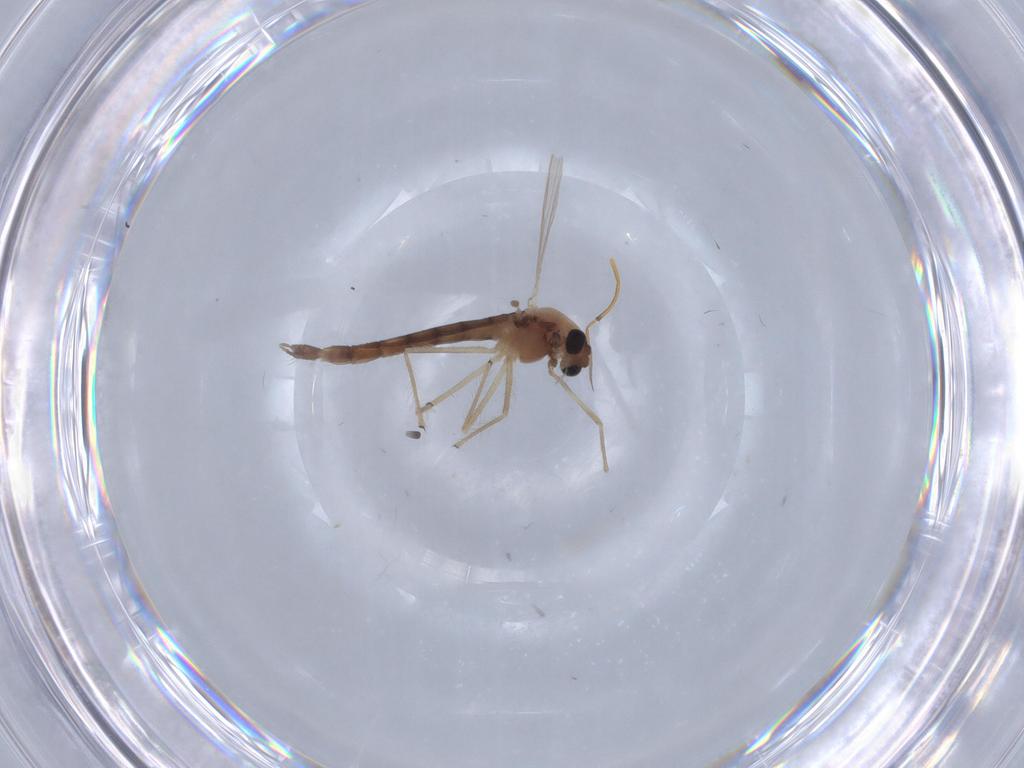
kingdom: Animalia
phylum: Arthropoda
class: Insecta
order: Diptera
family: Chironomidae
